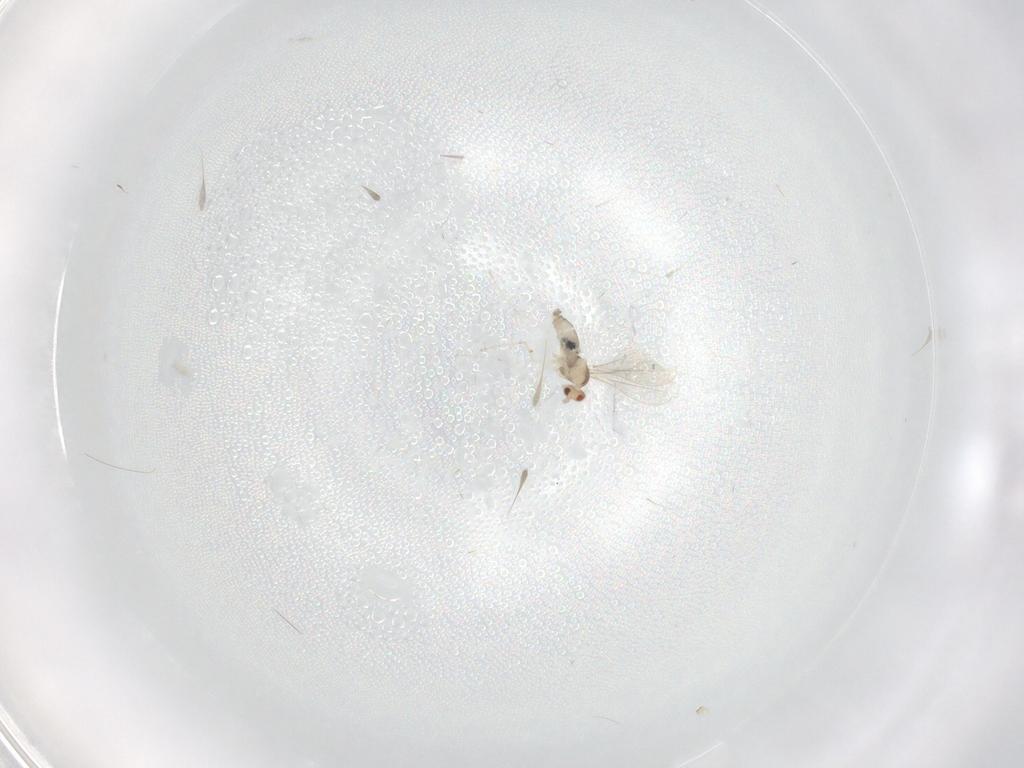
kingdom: Animalia
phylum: Arthropoda
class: Insecta
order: Diptera
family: Cecidomyiidae
